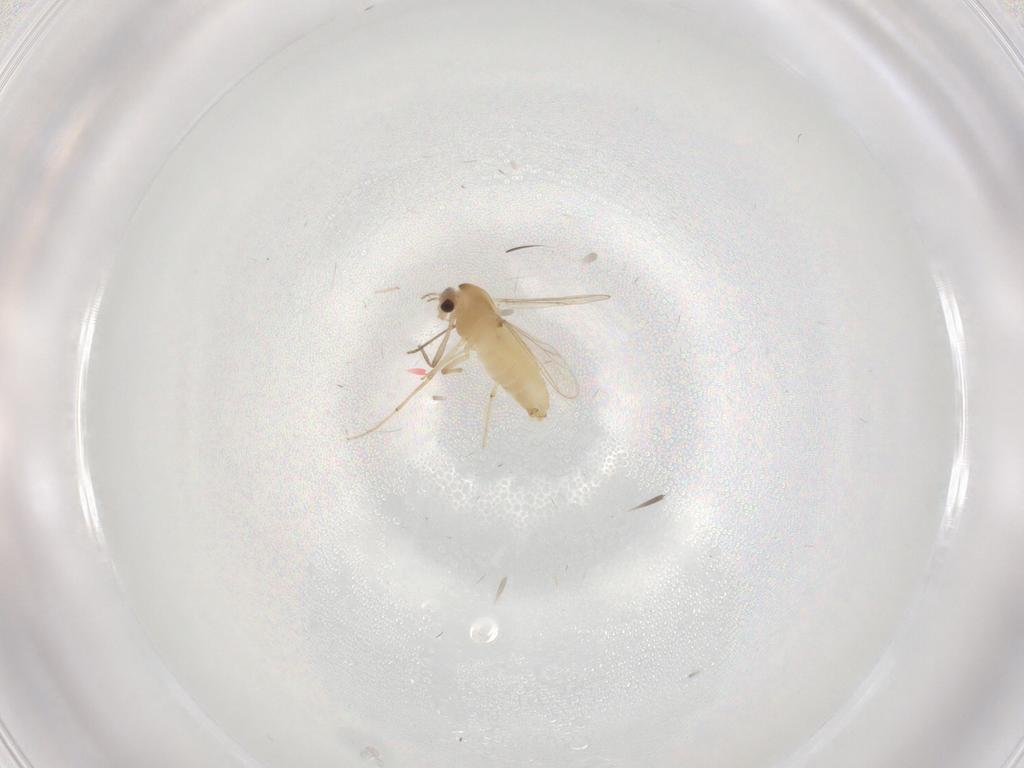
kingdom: Animalia
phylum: Arthropoda
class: Insecta
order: Diptera
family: Chironomidae
